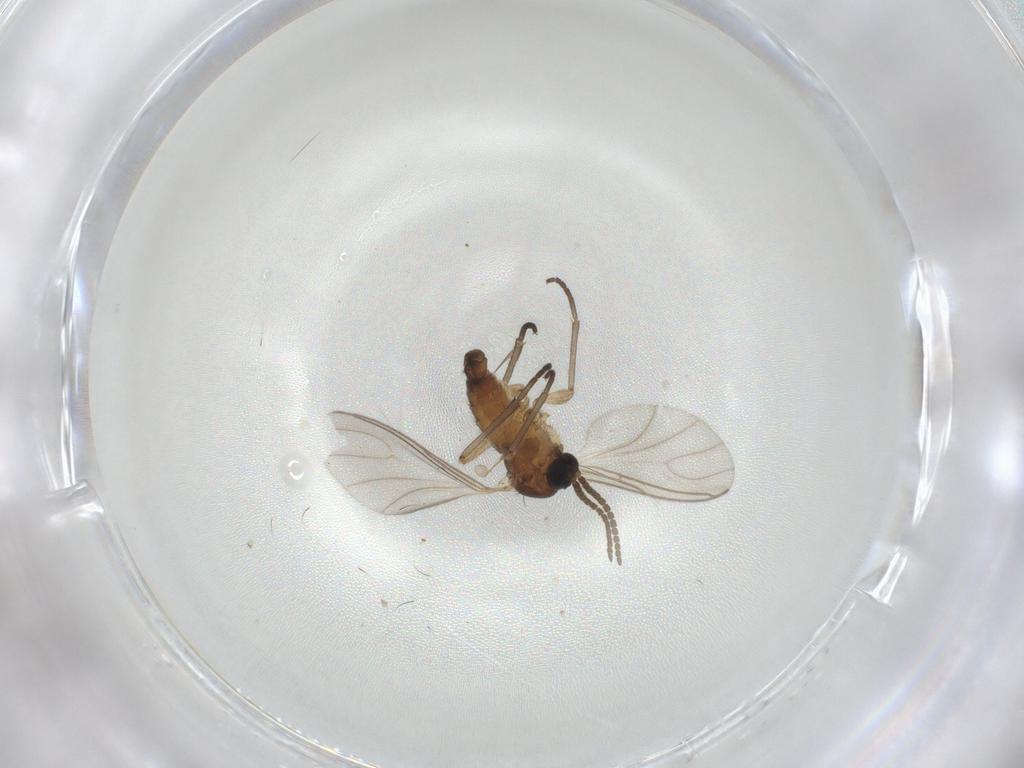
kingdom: Animalia
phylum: Arthropoda
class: Insecta
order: Diptera
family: Sciaridae
